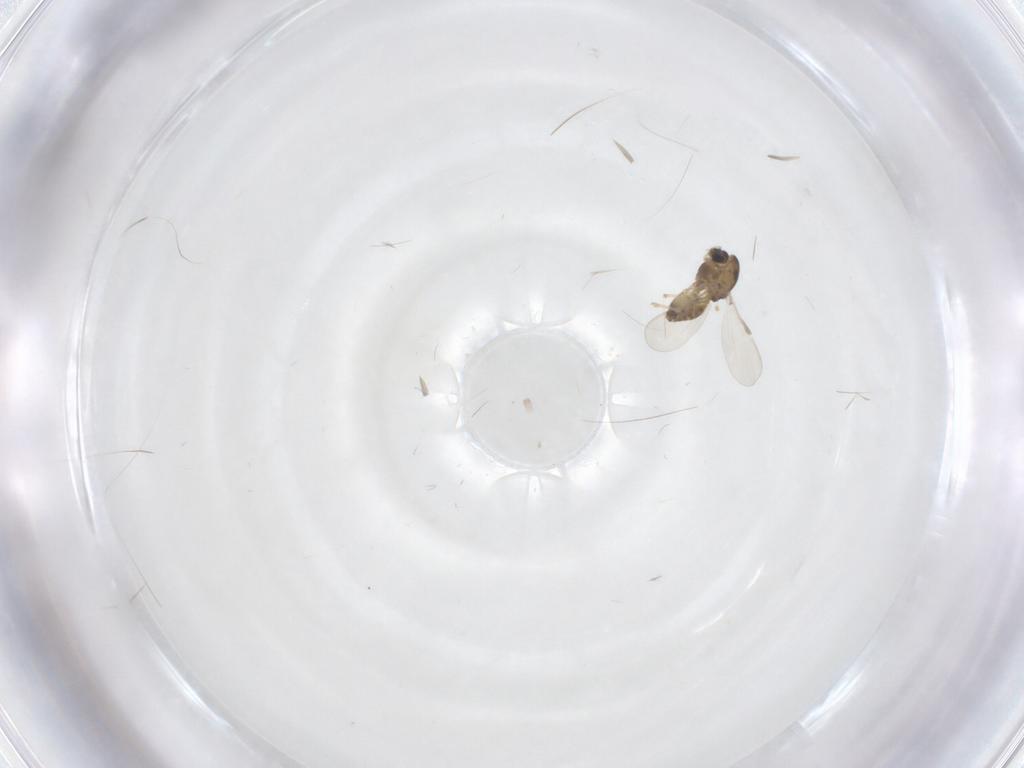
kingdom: Animalia
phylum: Arthropoda
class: Insecta
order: Diptera
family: Chironomidae
